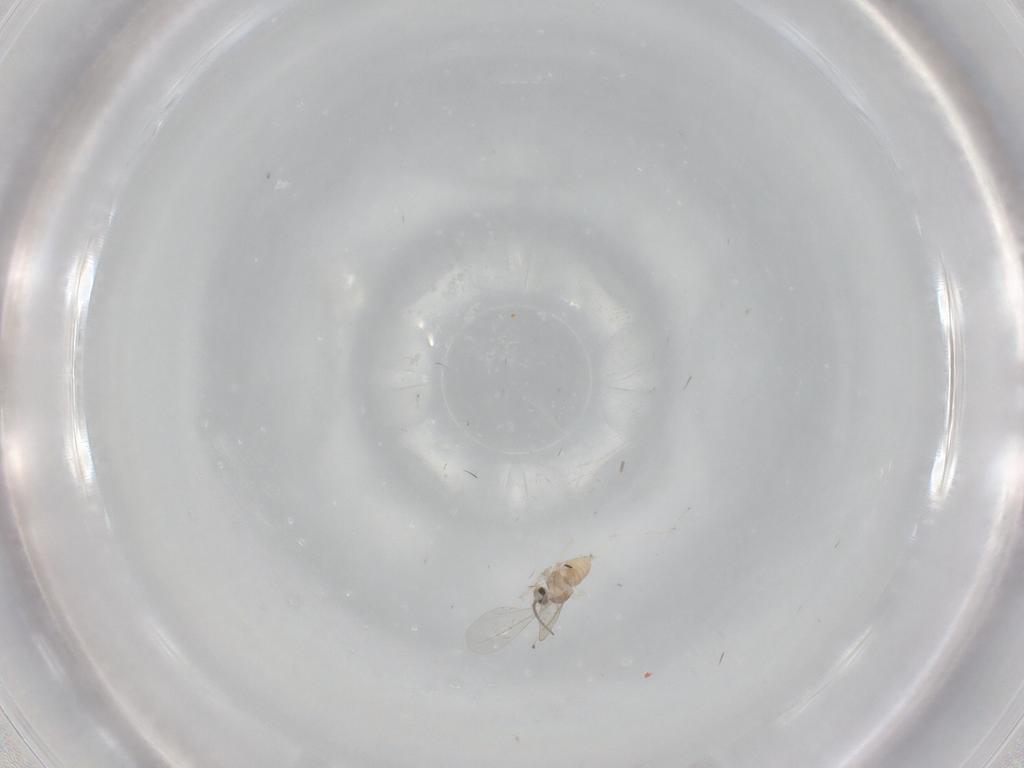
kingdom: Animalia
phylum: Arthropoda
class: Insecta
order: Diptera
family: Cecidomyiidae
